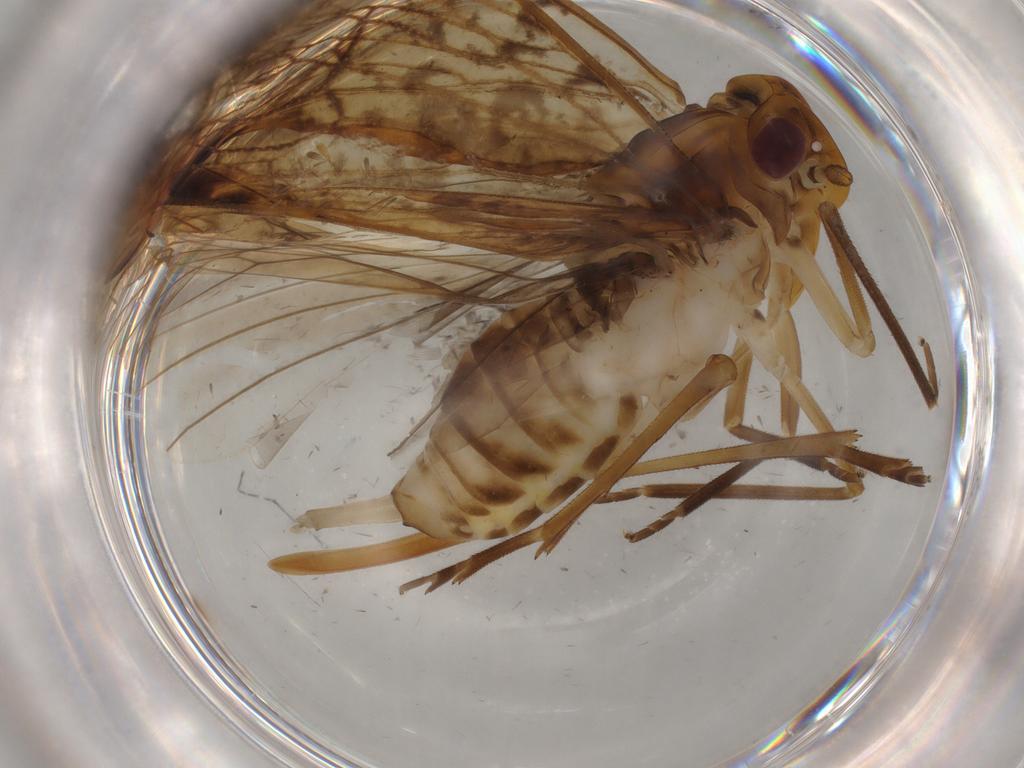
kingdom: Animalia
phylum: Arthropoda
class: Insecta
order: Hemiptera
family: Cixiidae
